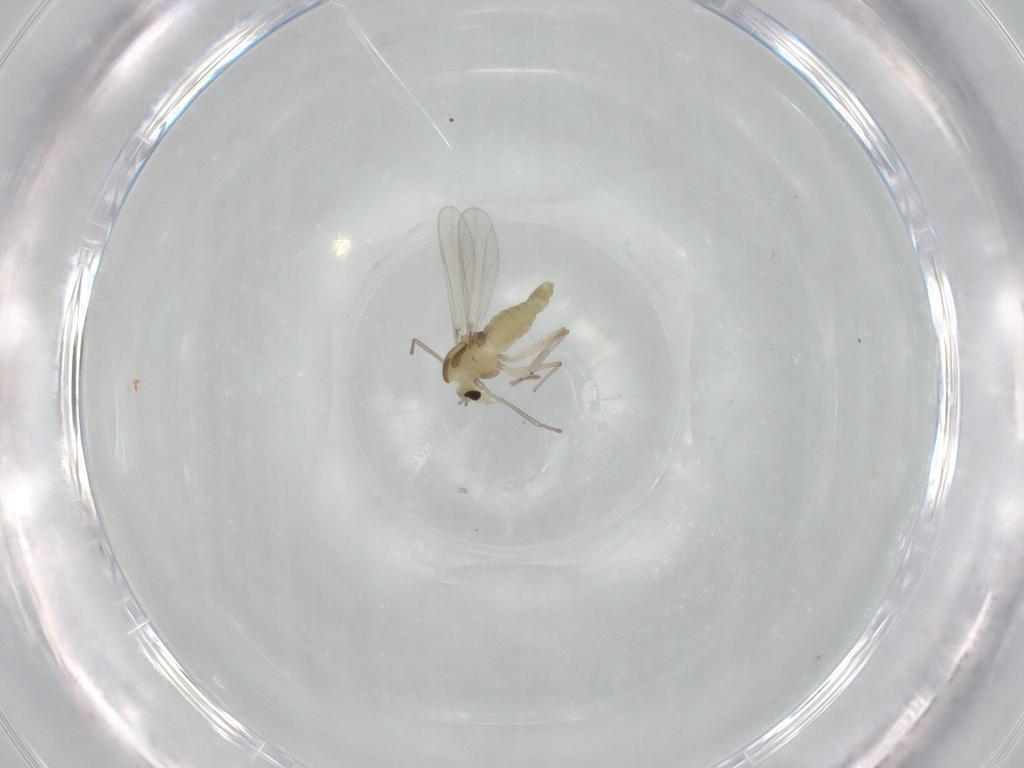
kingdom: Animalia
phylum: Arthropoda
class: Insecta
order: Diptera
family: Chironomidae
